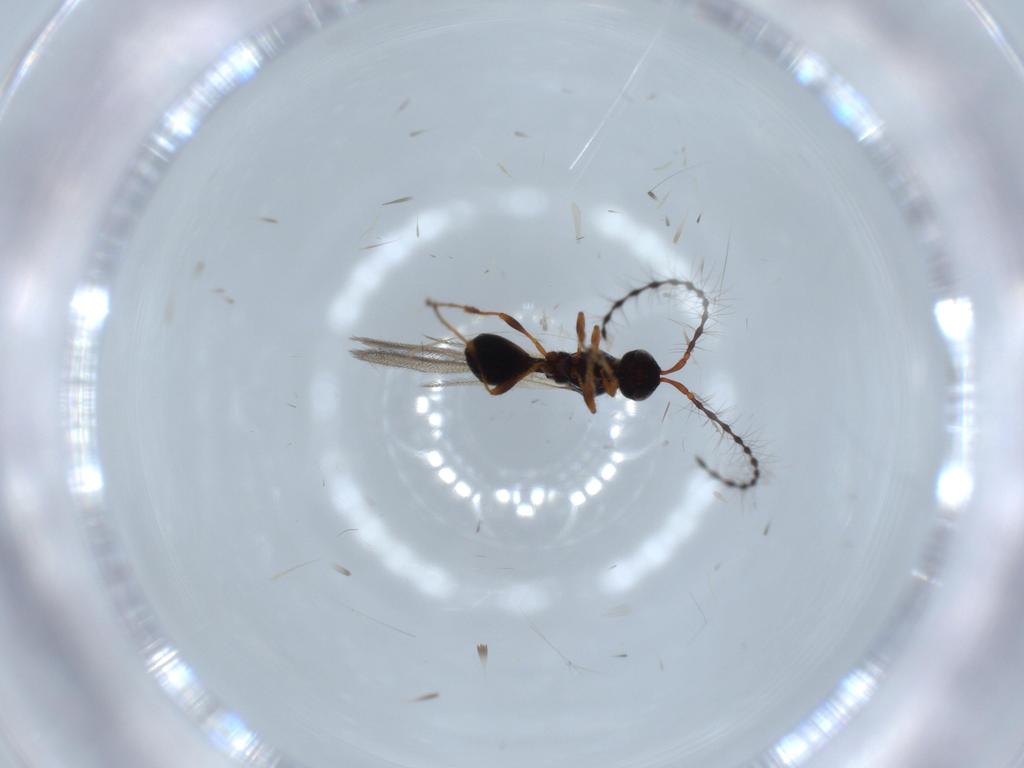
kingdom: Animalia
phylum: Arthropoda
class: Insecta
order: Hymenoptera
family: Diapriidae
